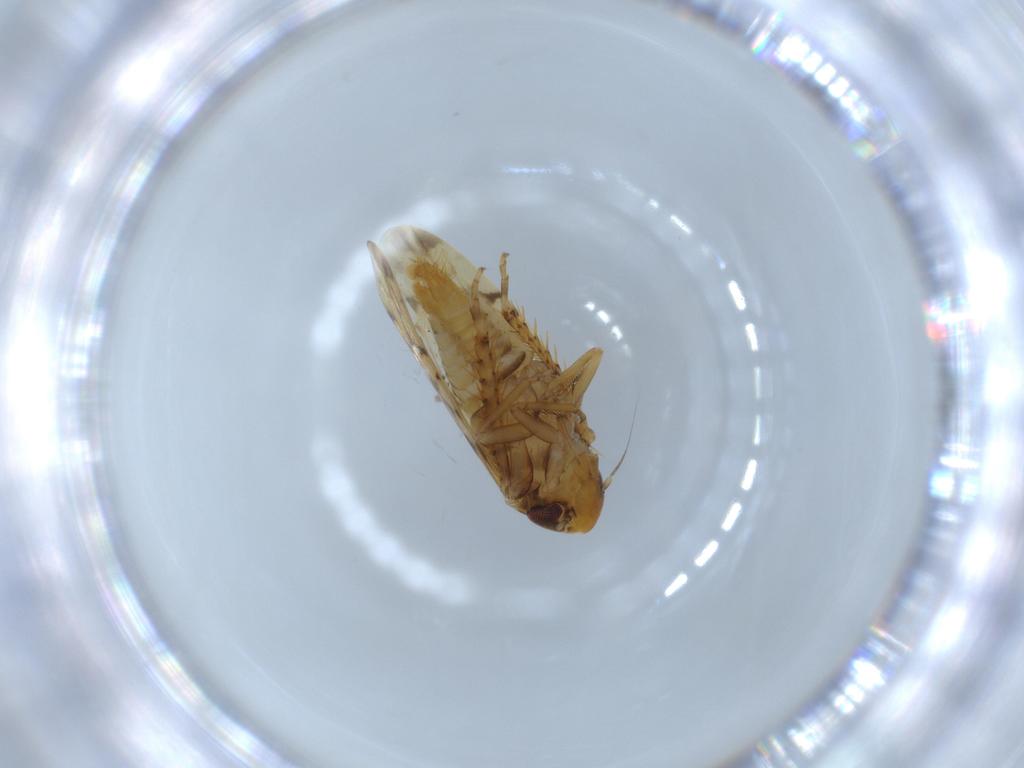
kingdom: Animalia
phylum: Arthropoda
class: Insecta
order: Hemiptera
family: Cicadellidae
